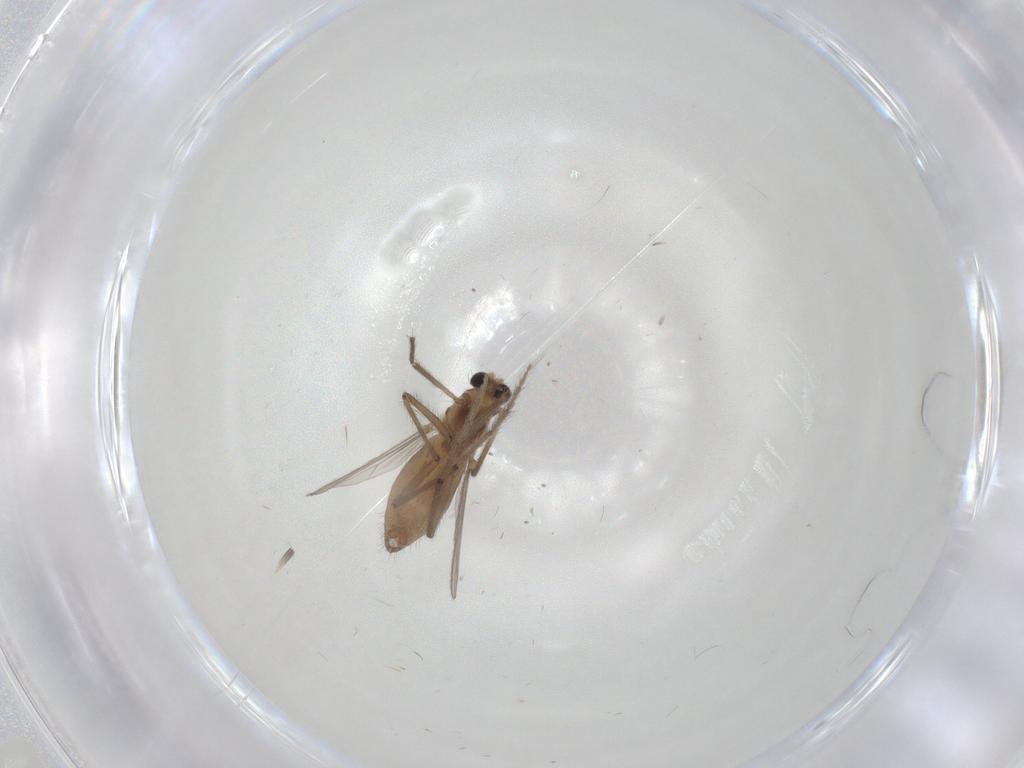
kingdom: Animalia
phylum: Arthropoda
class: Insecta
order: Diptera
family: Chironomidae
